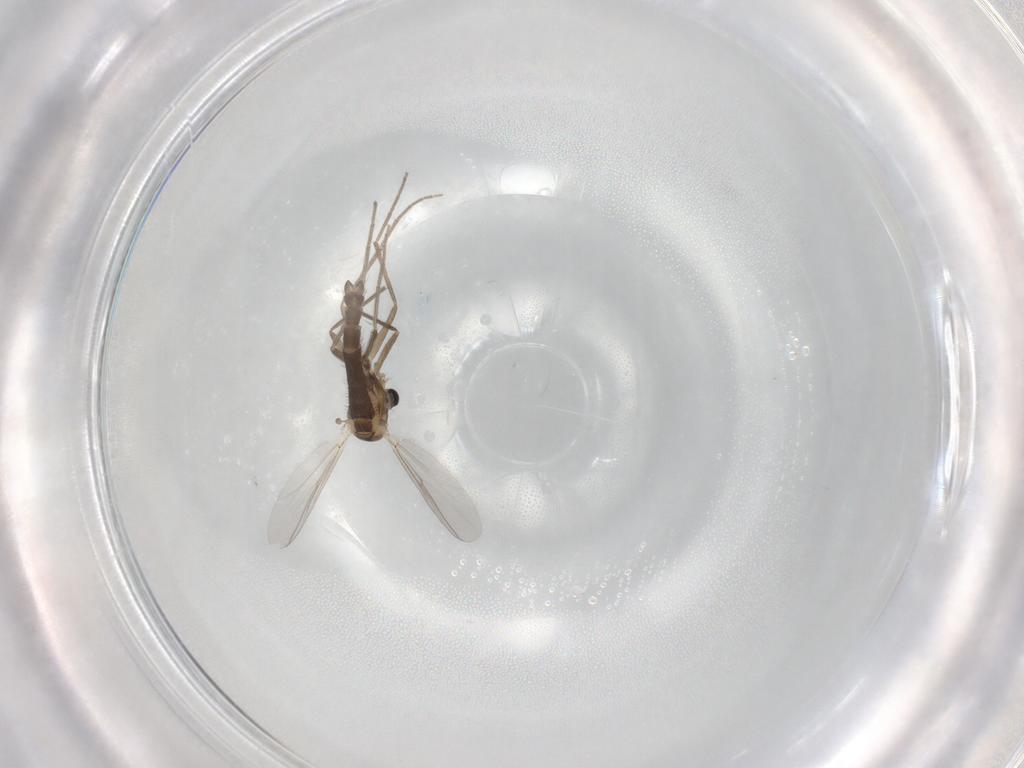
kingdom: Animalia
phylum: Arthropoda
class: Insecta
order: Diptera
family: Chironomidae
